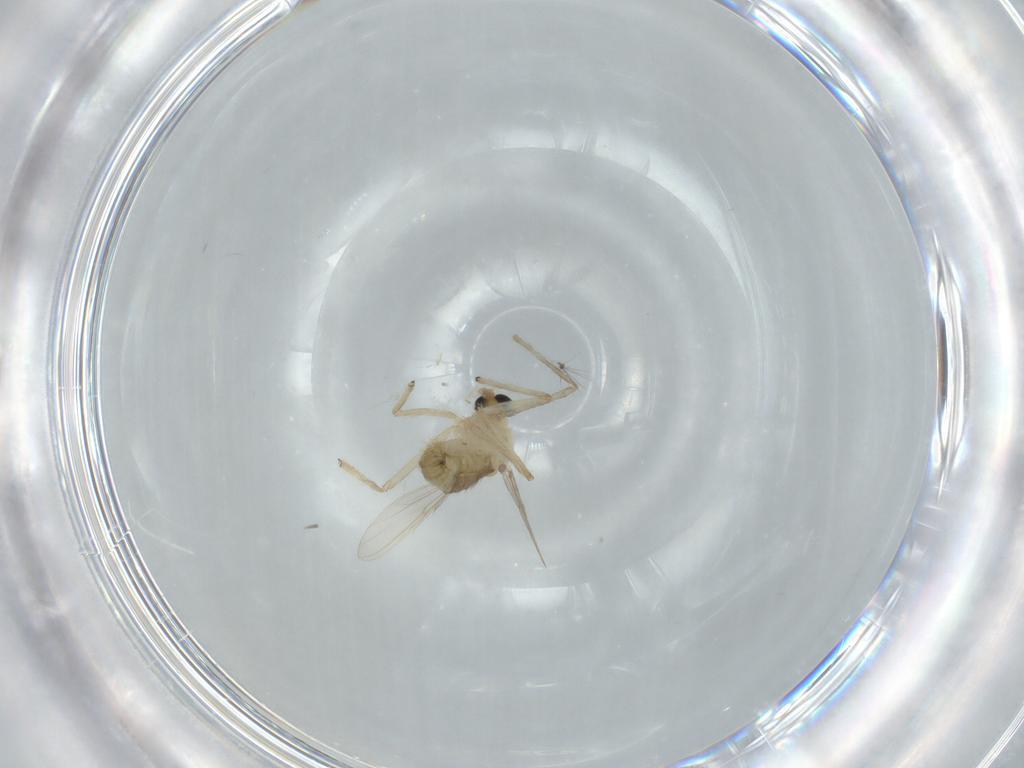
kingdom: Animalia
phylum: Arthropoda
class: Insecta
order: Diptera
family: Chironomidae
